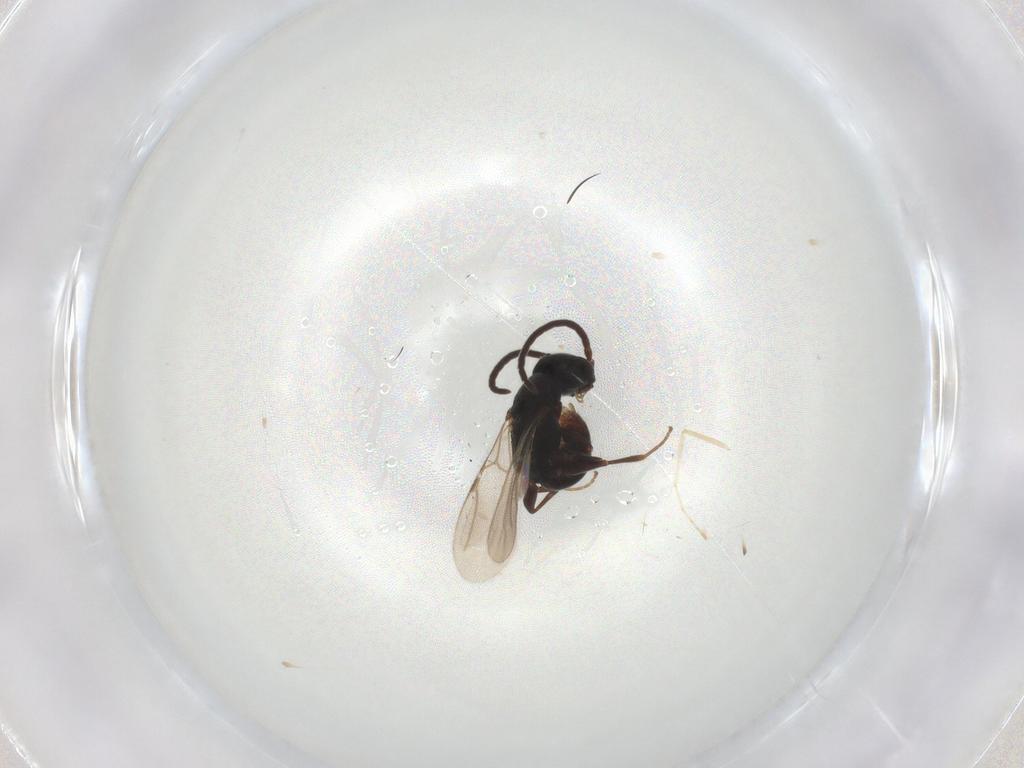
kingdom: Animalia
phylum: Arthropoda
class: Insecta
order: Hymenoptera
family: Bethylidae
